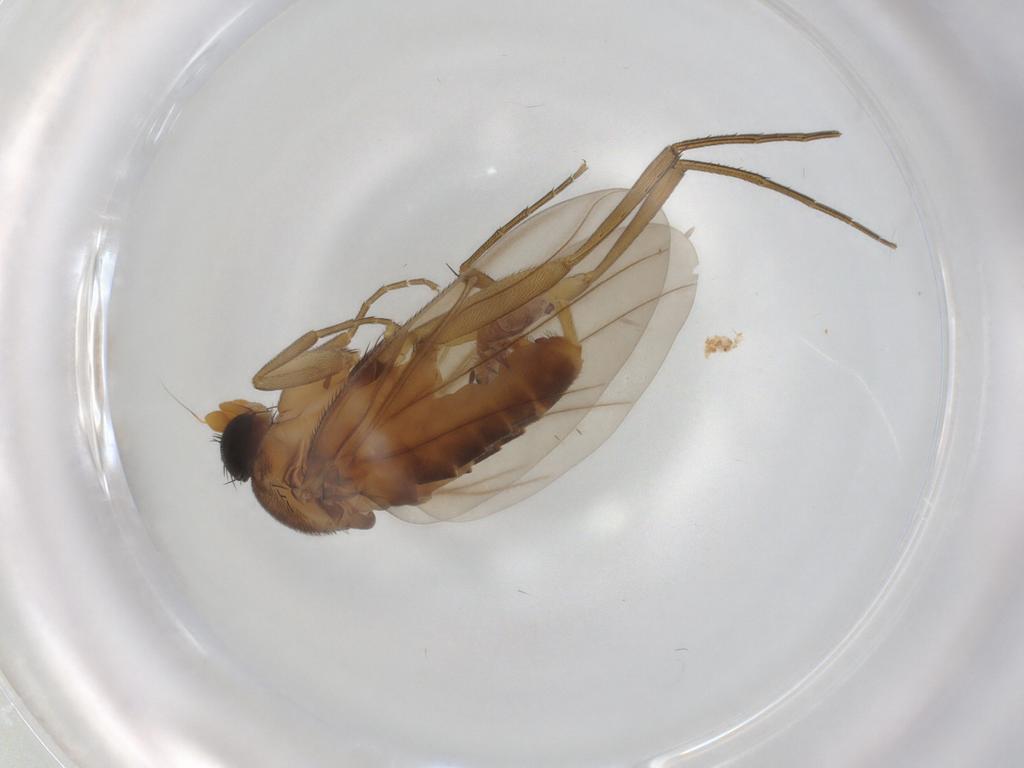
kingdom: Animalia
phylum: Arthropoda
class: Insecta
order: Diptera
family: Phoridae
